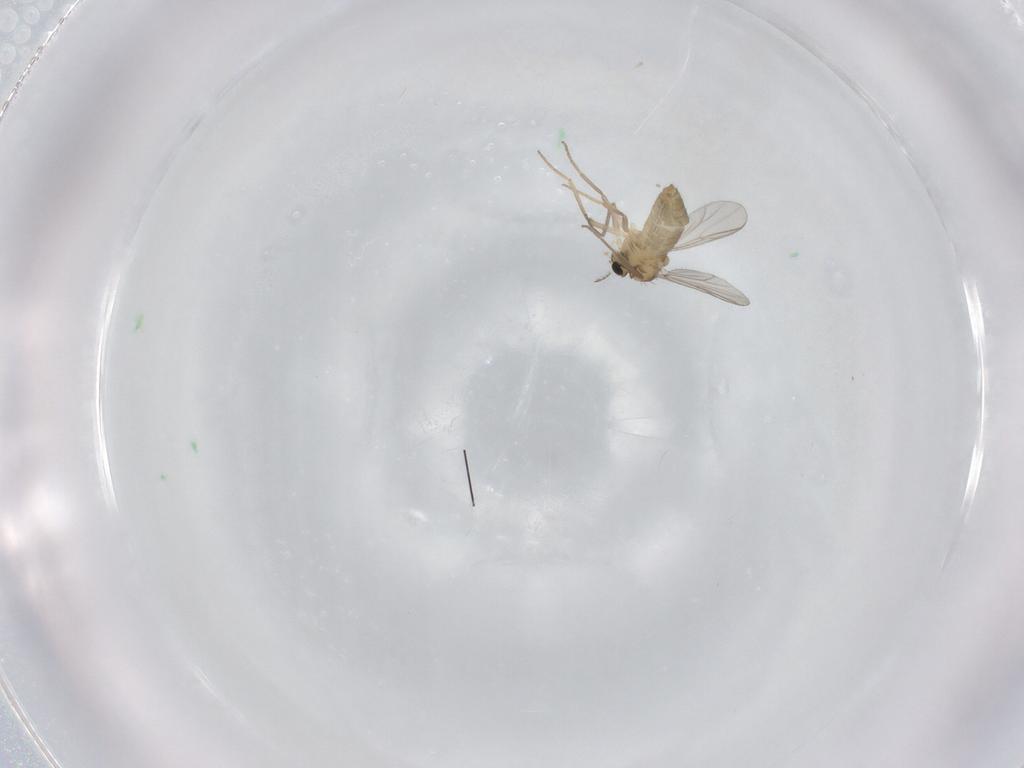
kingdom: Animalia
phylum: Arthropoda
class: Insecta
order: Diptera
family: Chironomidae
